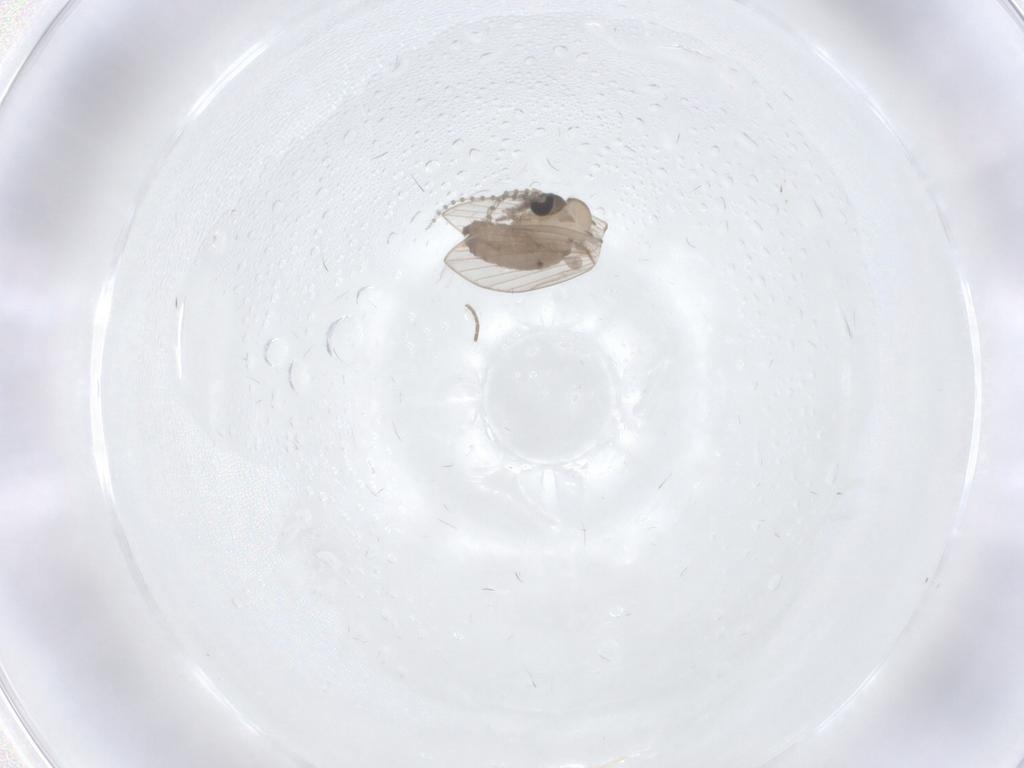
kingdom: Animalia
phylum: Arthropoda
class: Insecta
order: Diptera
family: Psychodidae
